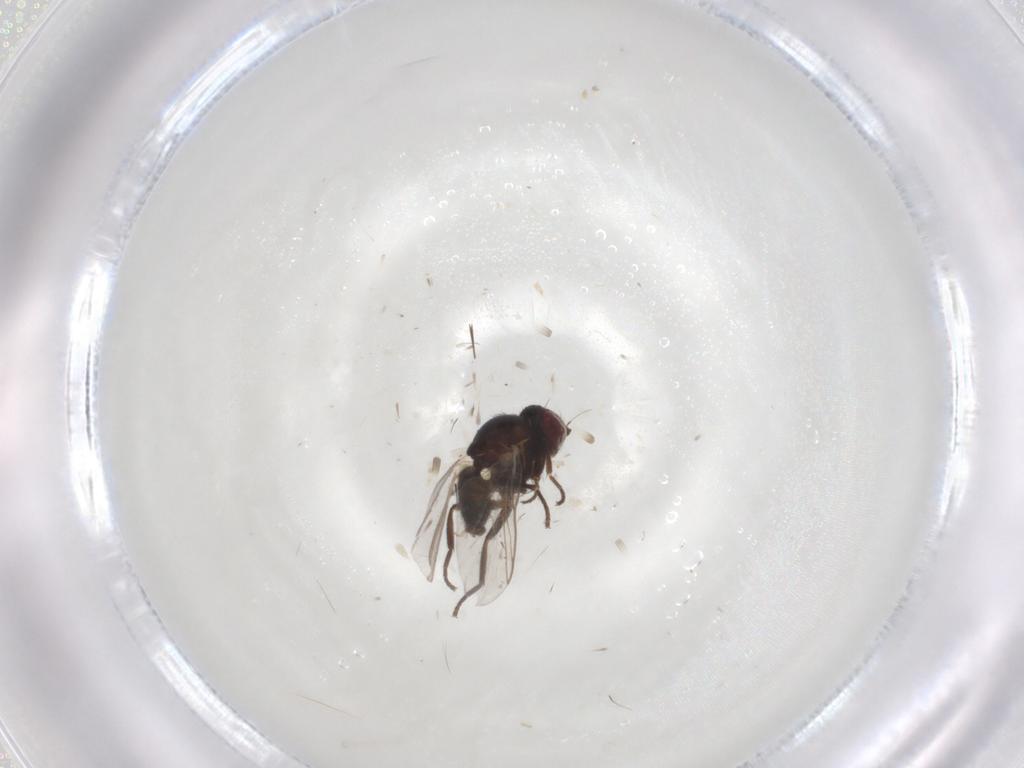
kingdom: Animalia
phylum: Arthropoda
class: Insecta
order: Diptera
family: Agromyzidae
